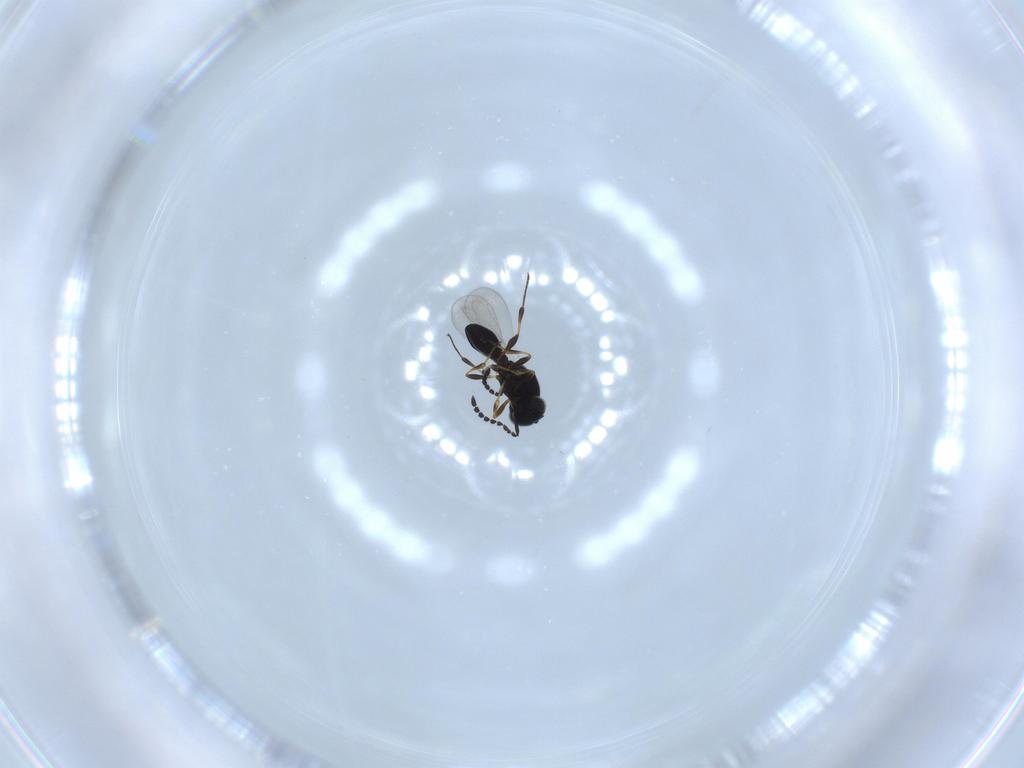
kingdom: Animalia
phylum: Arthropoda
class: Insecta
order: Hymenoptera
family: Platygastridae
